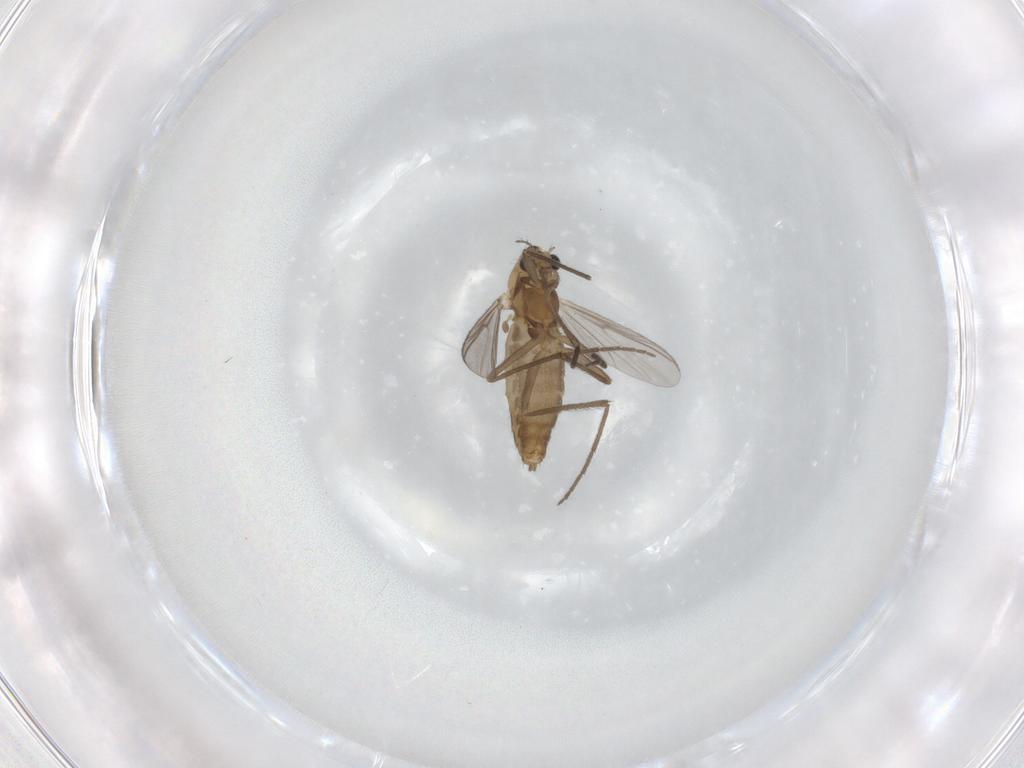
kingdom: Animalia
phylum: Arthropoda
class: Insecta
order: Diptera
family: Chironomidae
